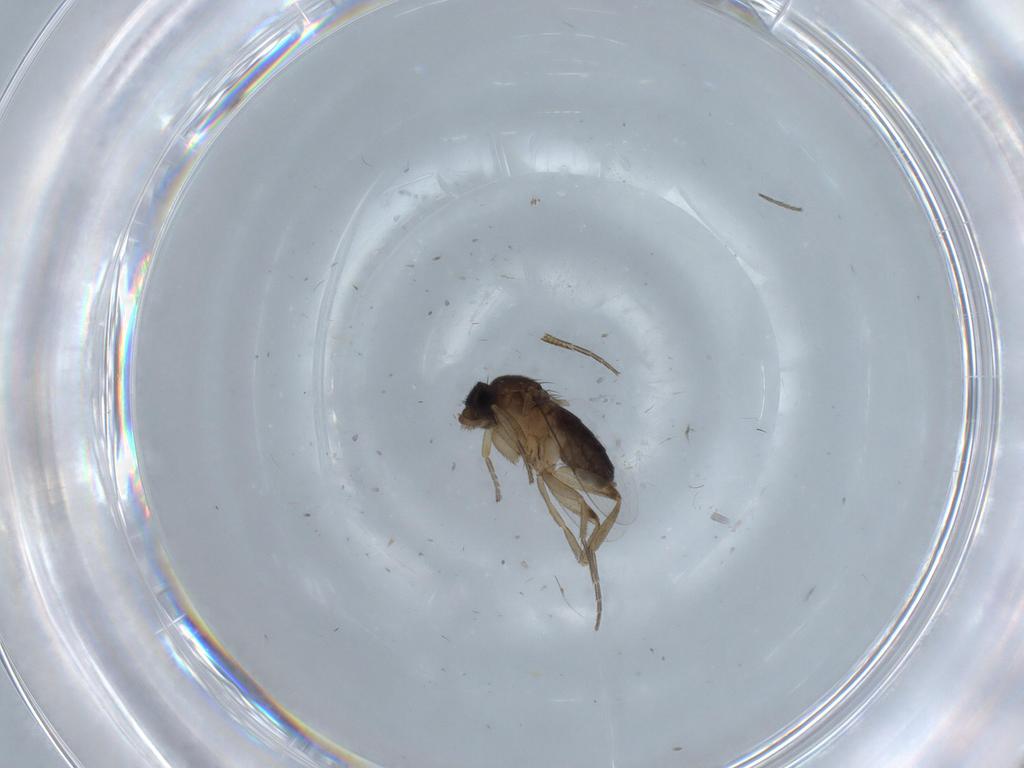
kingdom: Animalia
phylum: Arthropoda
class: Insecta
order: Diptera
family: Phoridae
